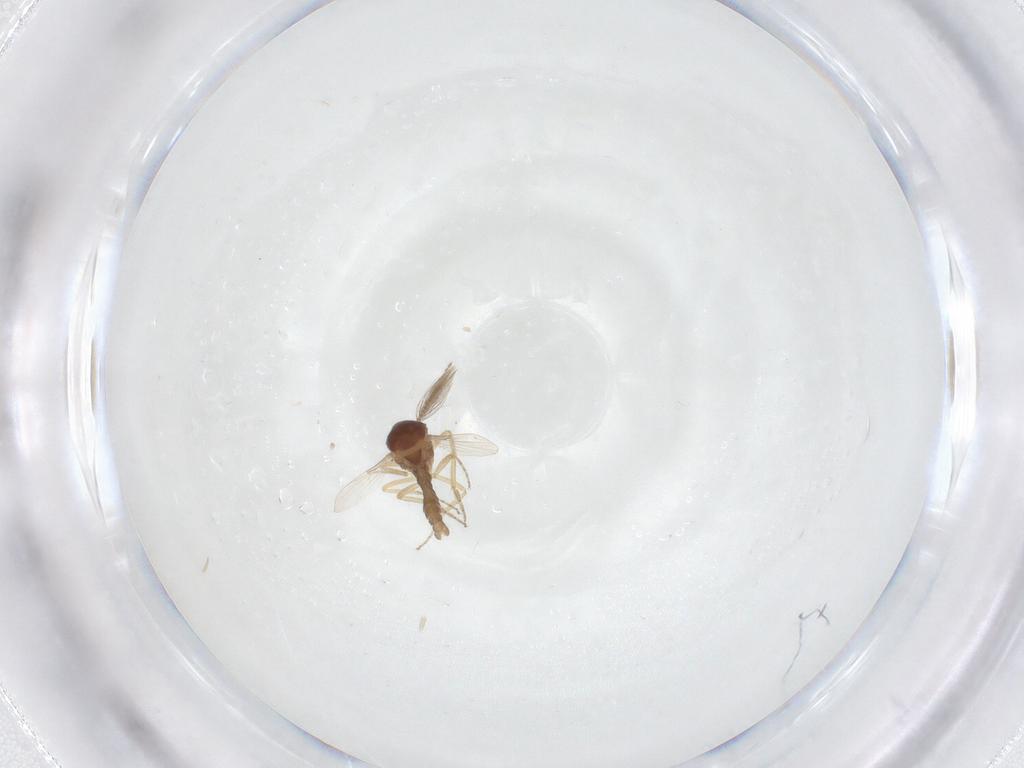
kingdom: Animalia
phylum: Arthropoda
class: Insecta
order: Diptera
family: Ceratopogonidae
